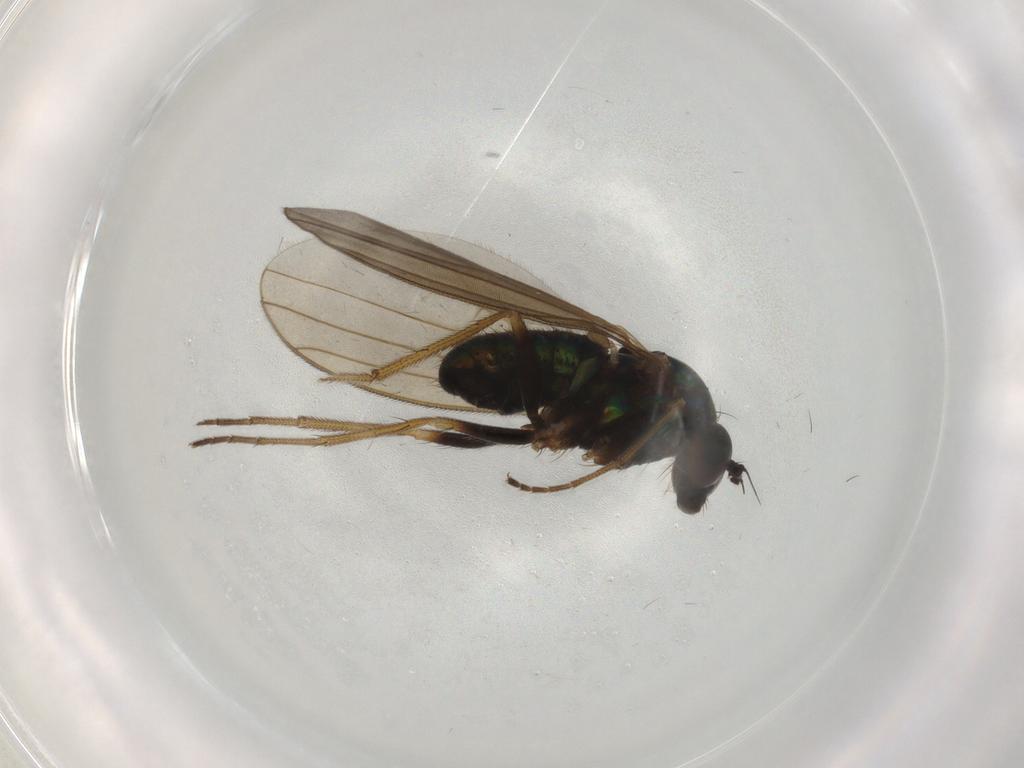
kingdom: Animalia
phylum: Arthropoda
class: Insecta
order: Diptera
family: Dolichopodidae
